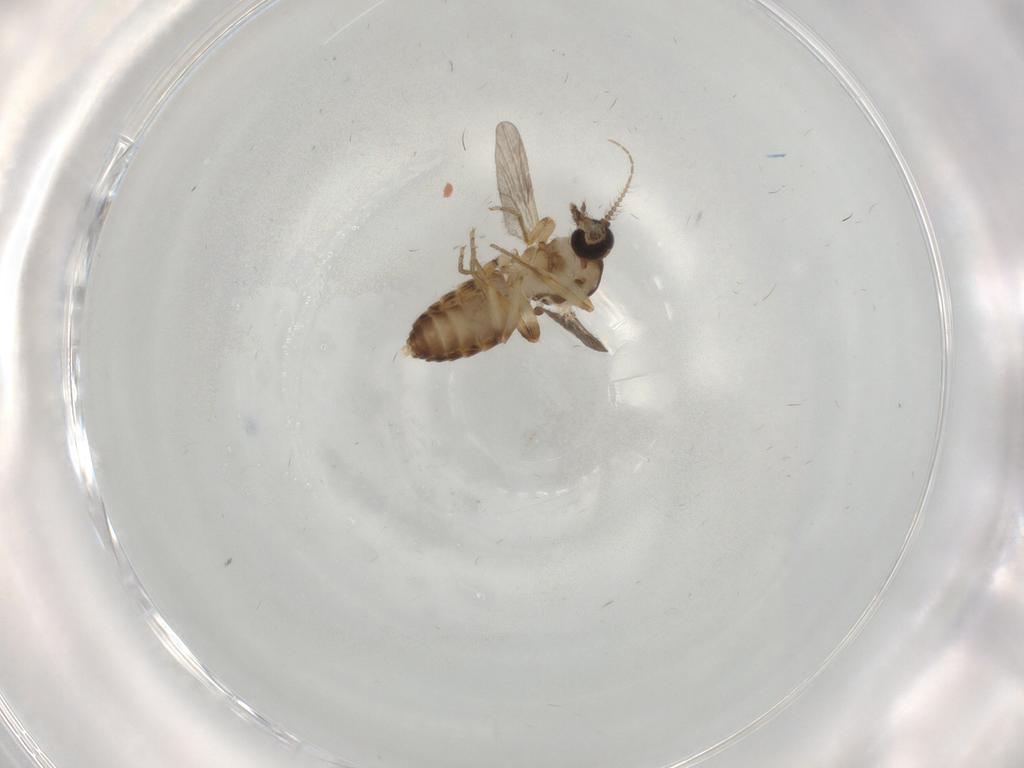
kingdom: Animalia
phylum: Arthropoda
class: Insecta
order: Diptera
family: Ceratopogonidae
